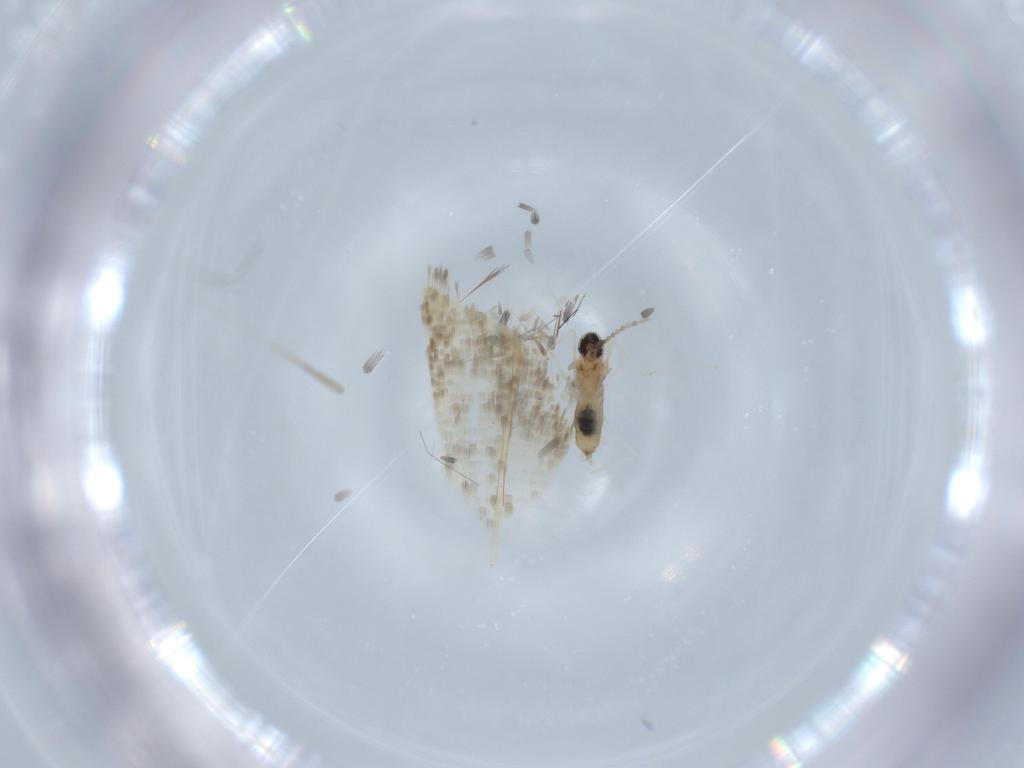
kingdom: Animalia
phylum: Arthropoda
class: Insecta
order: Diptera
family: Cecidomyiidae
